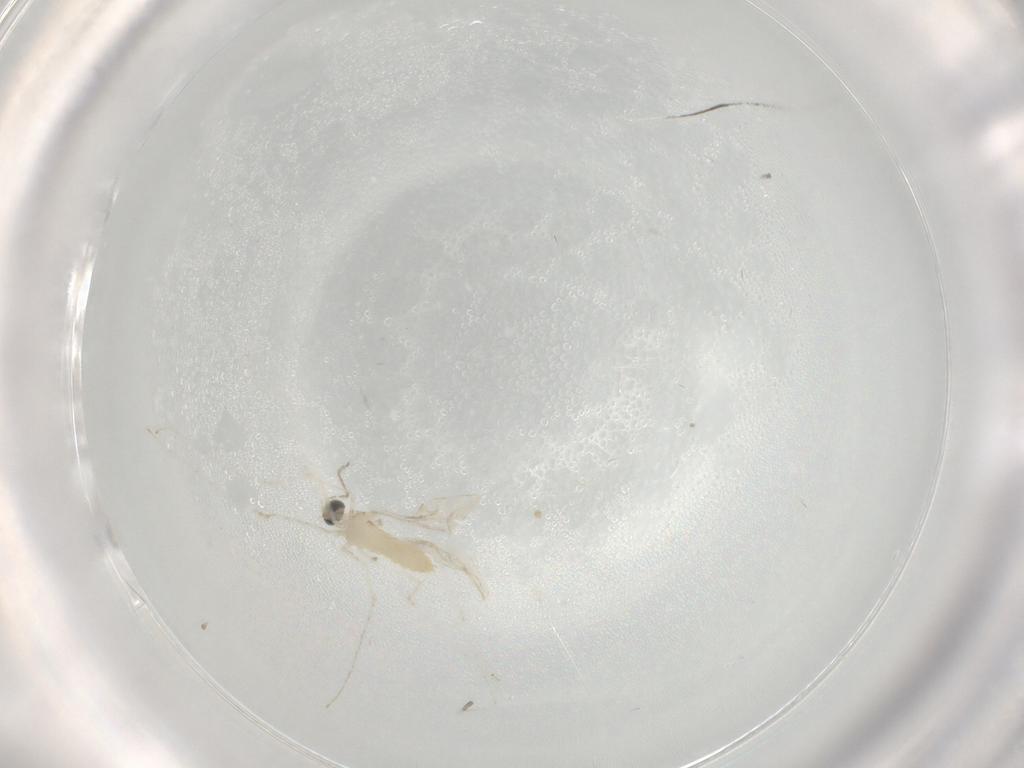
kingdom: Animalia
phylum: Arthropoda
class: Insecta
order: Diptera
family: Cecidomyiidae
